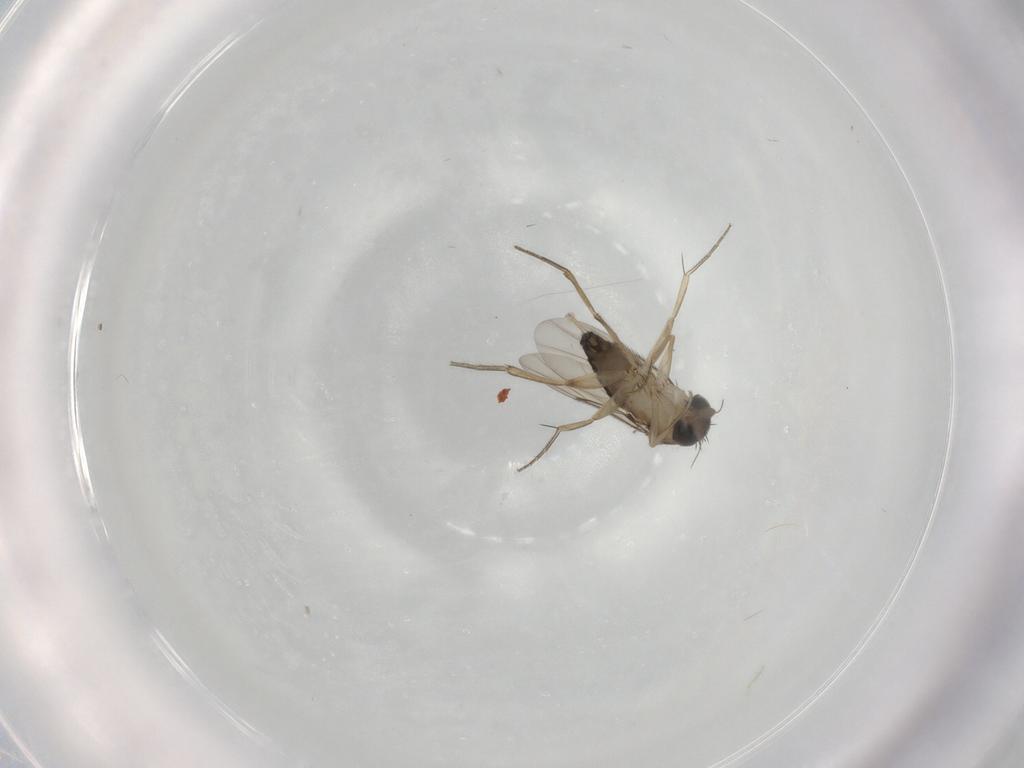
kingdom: Animalia
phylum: Arthropoda
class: Insecta
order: Diptera
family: Phoridae
